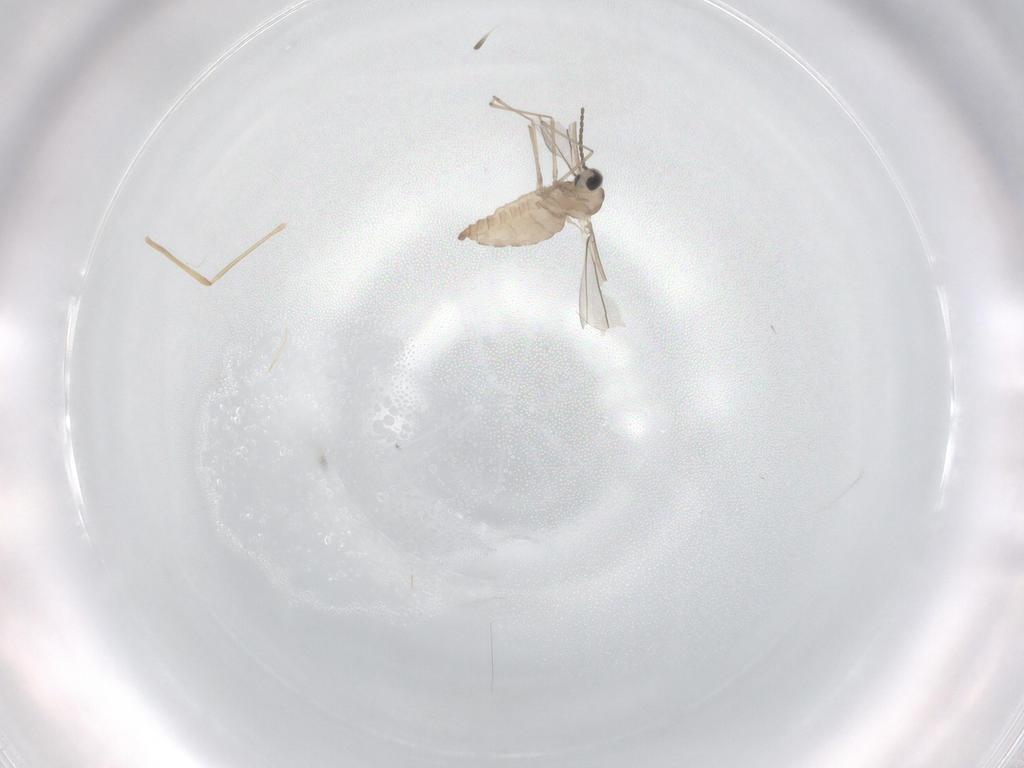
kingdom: Animalia
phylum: Arthropoda
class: Insecta
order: Diptera
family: Cecidomyiidae
